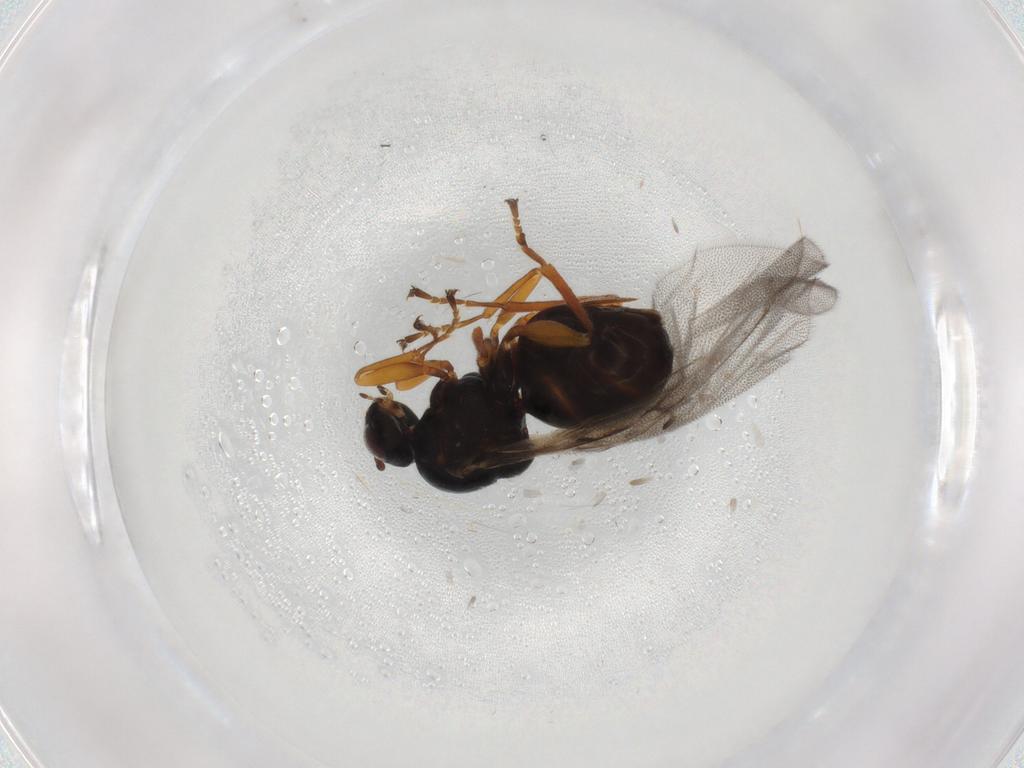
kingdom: Animalia
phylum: Arthropoda
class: Insecta
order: Hymenoptera
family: Cynipidae
